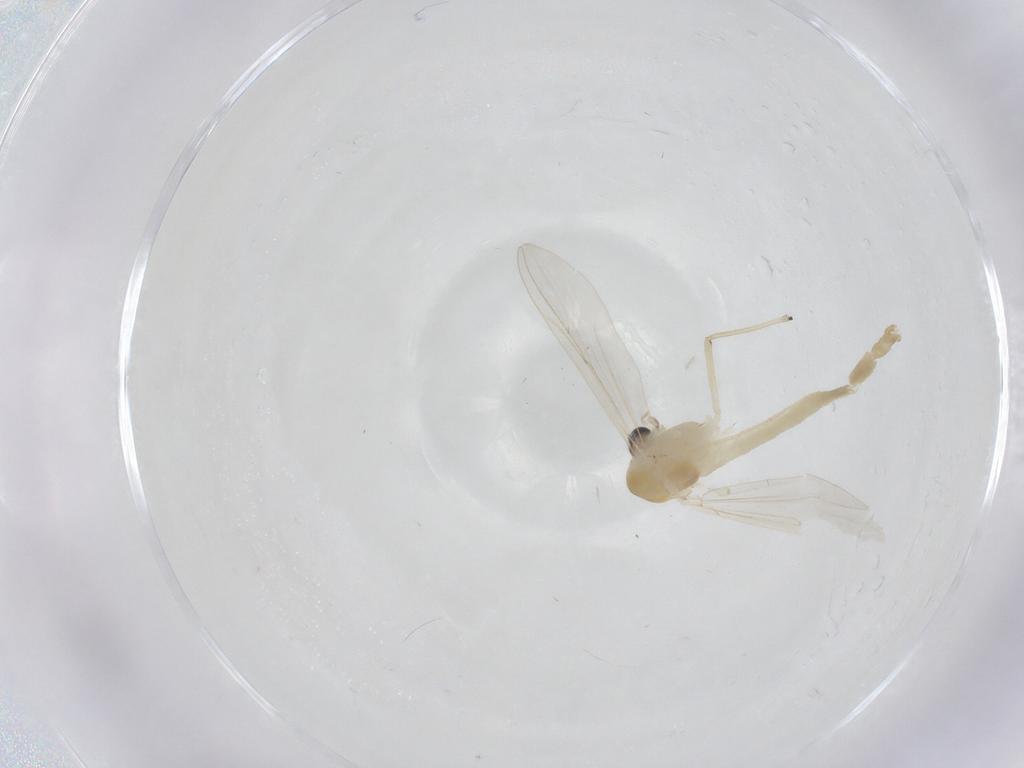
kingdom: Animalia
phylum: Arthropoda
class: Insecta
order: Diptera
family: Chironomidae
